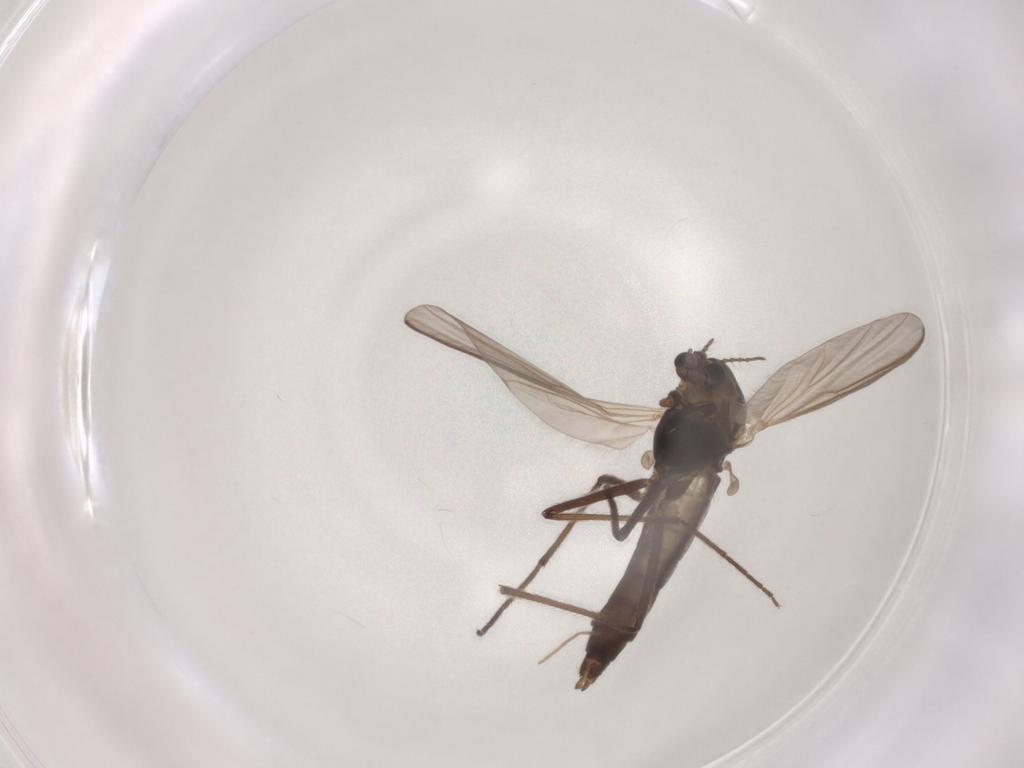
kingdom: Animalia
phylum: Arthropoda
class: Insecta
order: Diptera
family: Chironomidae
